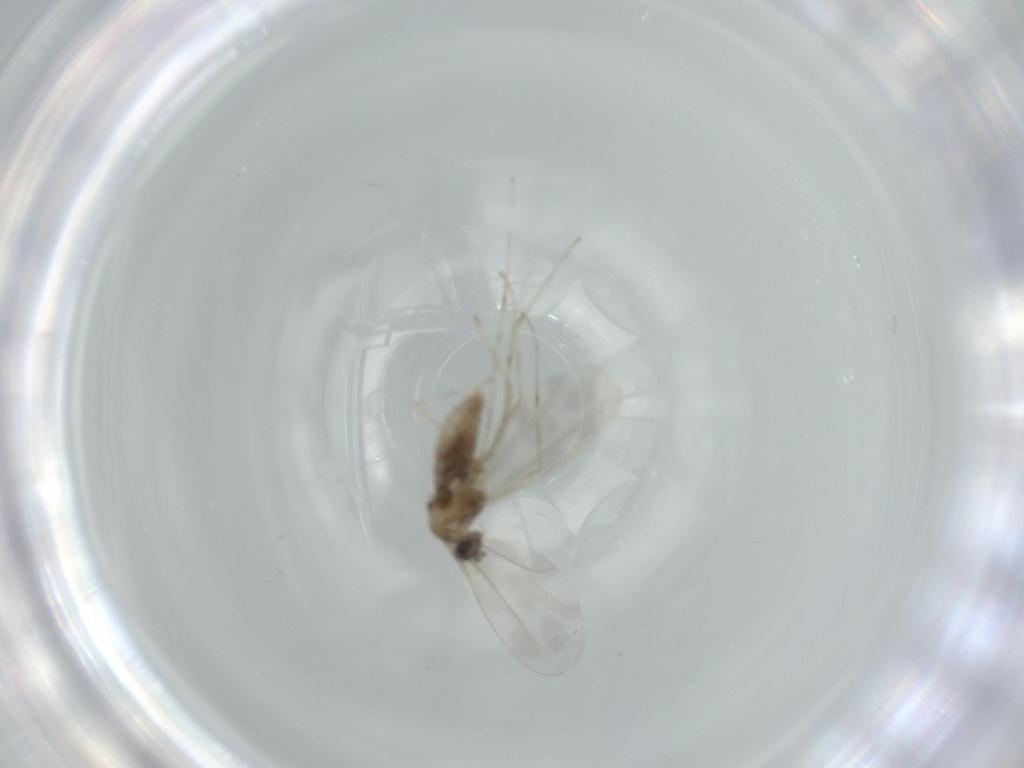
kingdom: Animalia
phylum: Arthropoda
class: Insecta
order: Diptera
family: Cecidomyiidae
